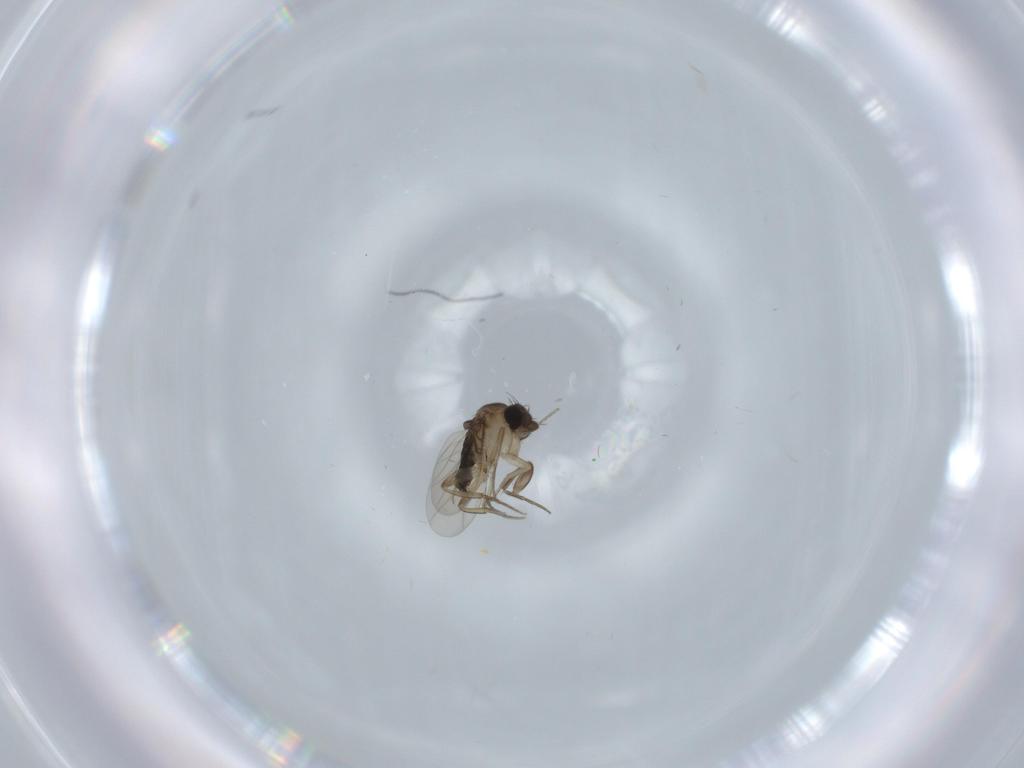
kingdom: Animalia
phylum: Arthropoda
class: Insecta
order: Diptera
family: Phoridae
